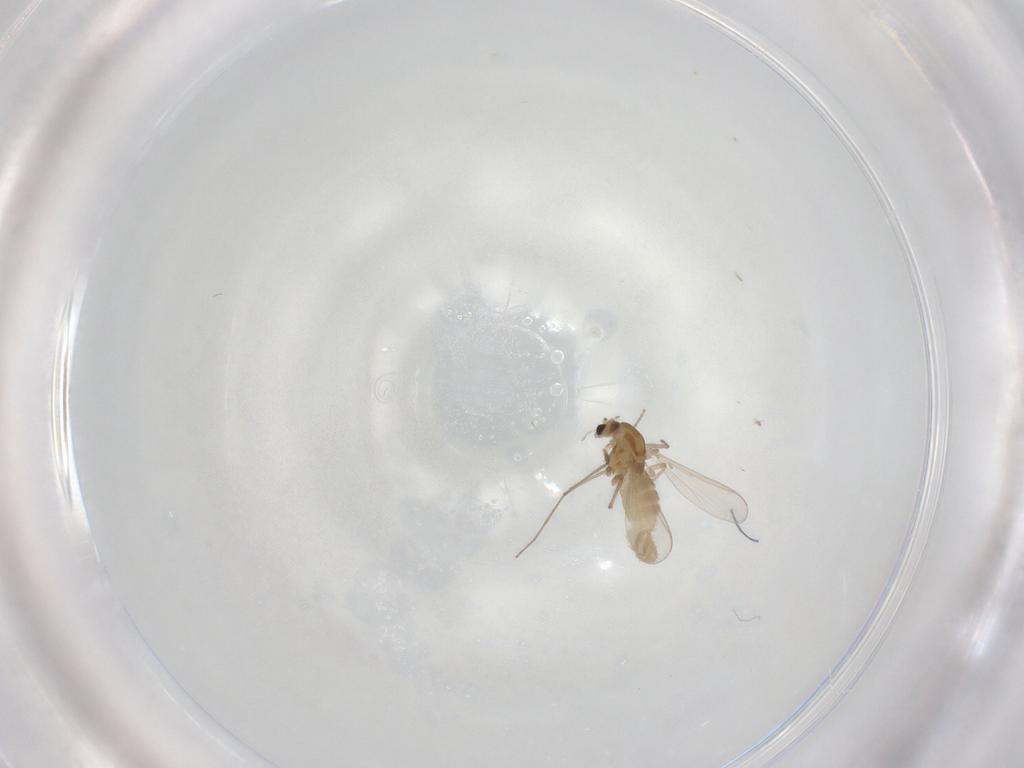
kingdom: Animalia
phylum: Arthropoda
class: Insecta
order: Diptera
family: Chironomidae
